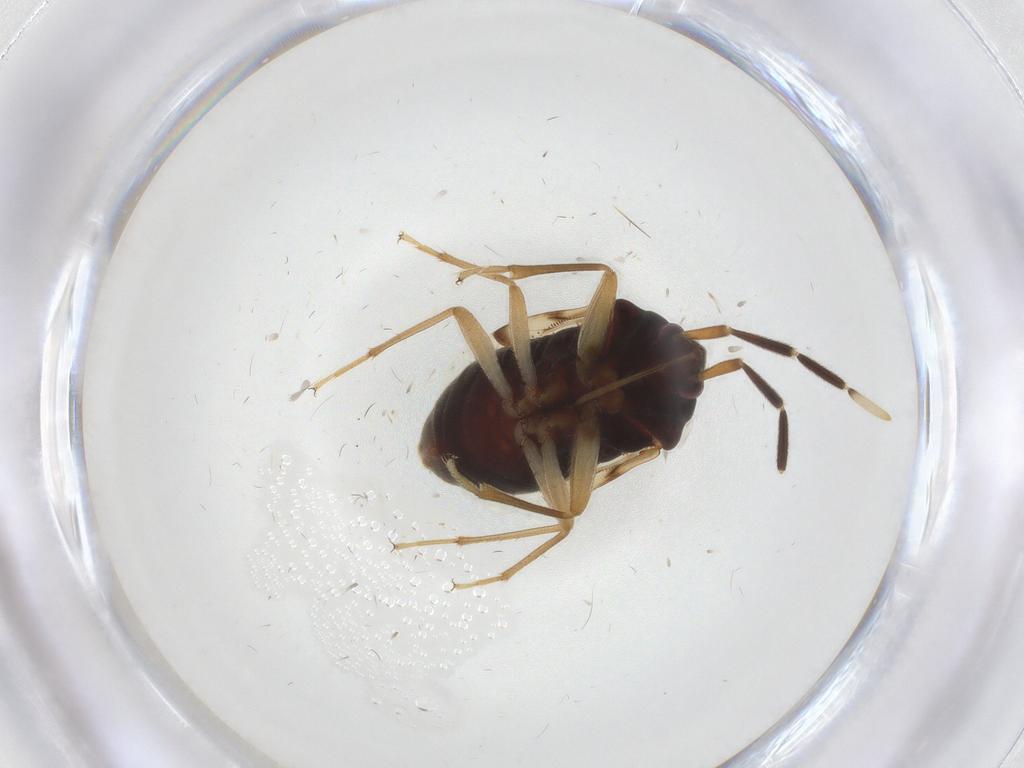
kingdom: Animalia
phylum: Arthropoda
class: Insecta
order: Hemiptera
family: Rhyparochromidae
